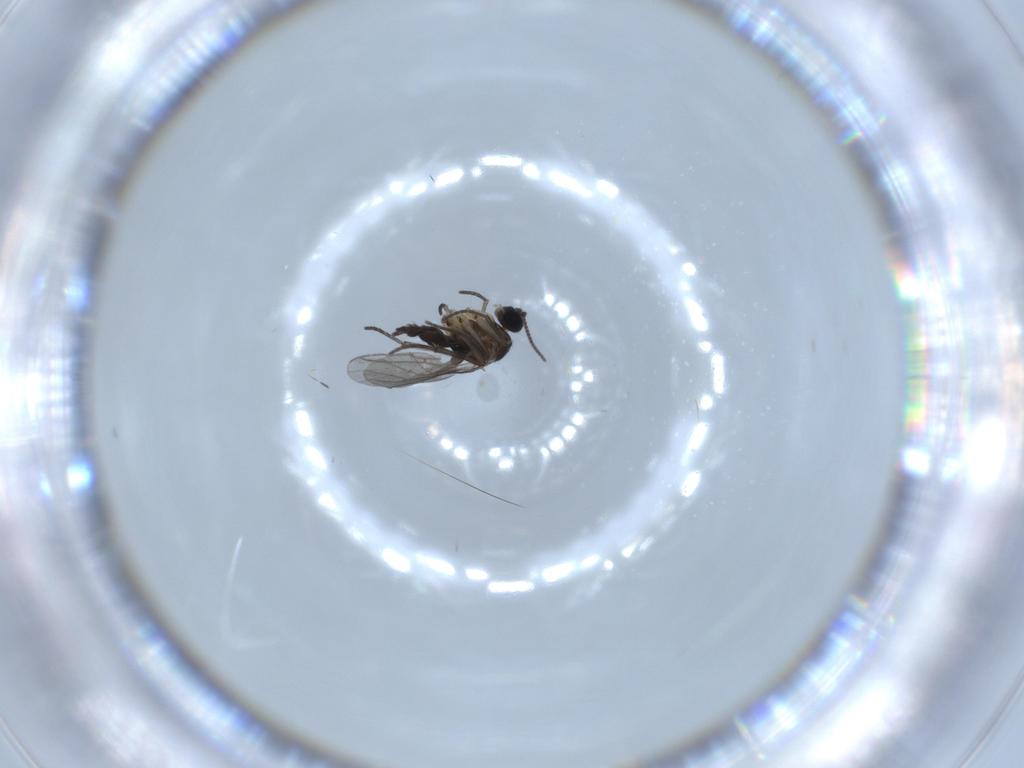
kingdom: Animalia
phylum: Arthropoda
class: Insecta
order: Diptera
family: Sciaridae
